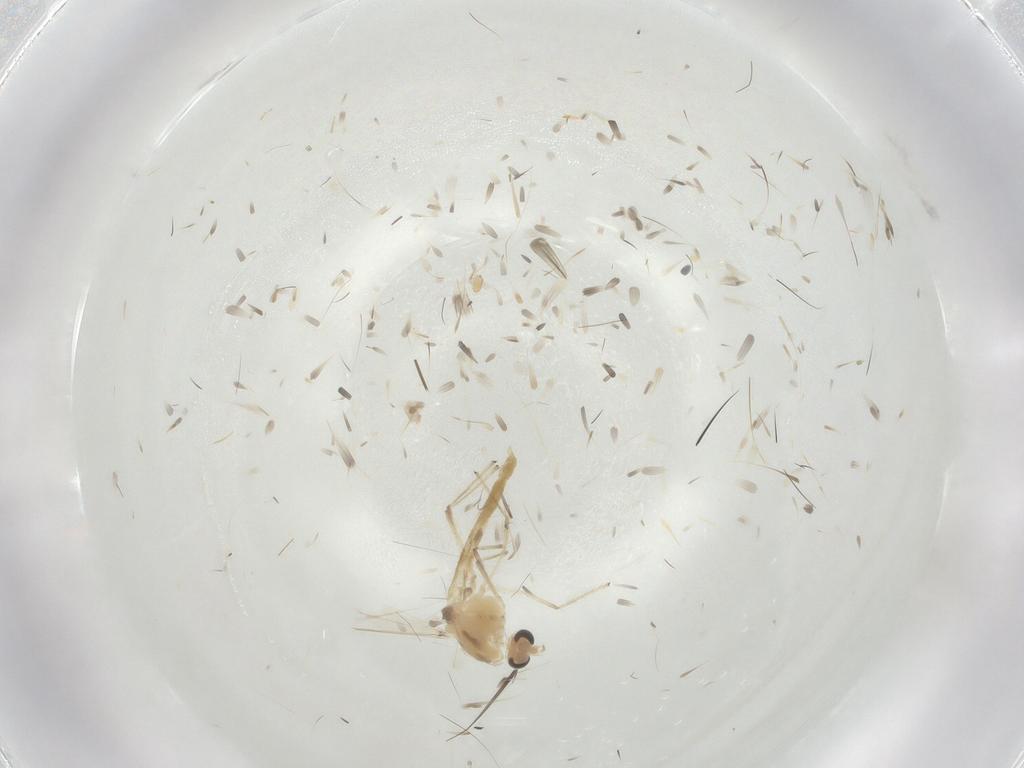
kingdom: Animalia
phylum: Arthropoda
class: Insecta
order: Diptera
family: Chironomidae
